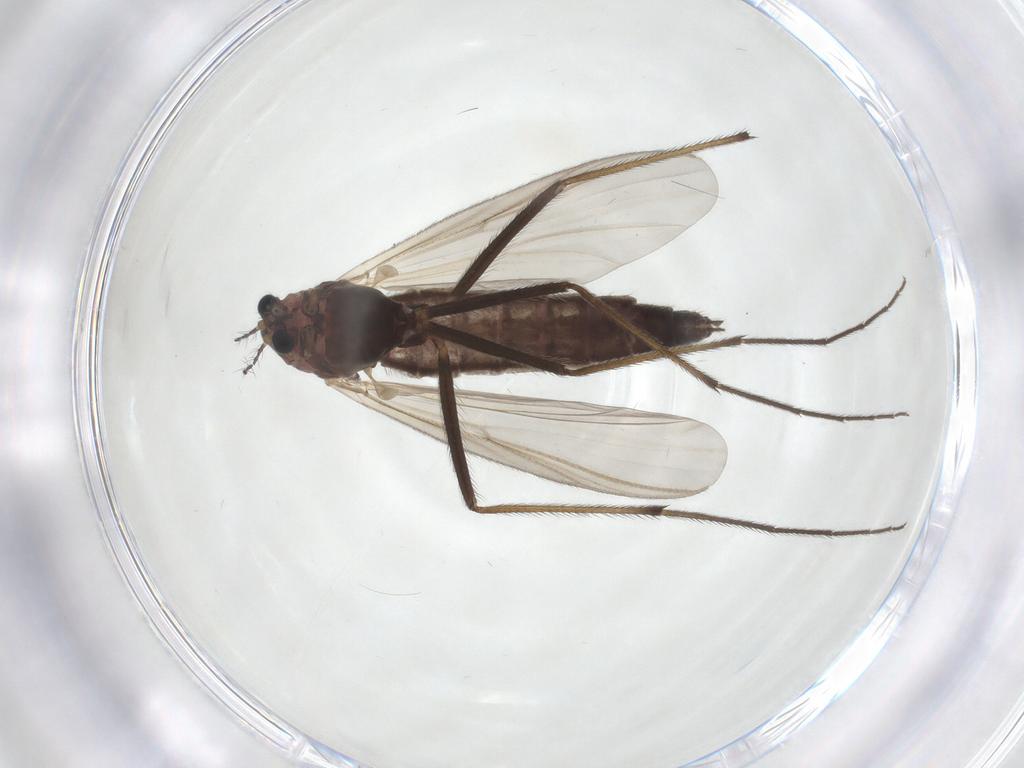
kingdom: Animalia
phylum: Arthropoda
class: Insecta
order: Diptera
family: Chironomidae
